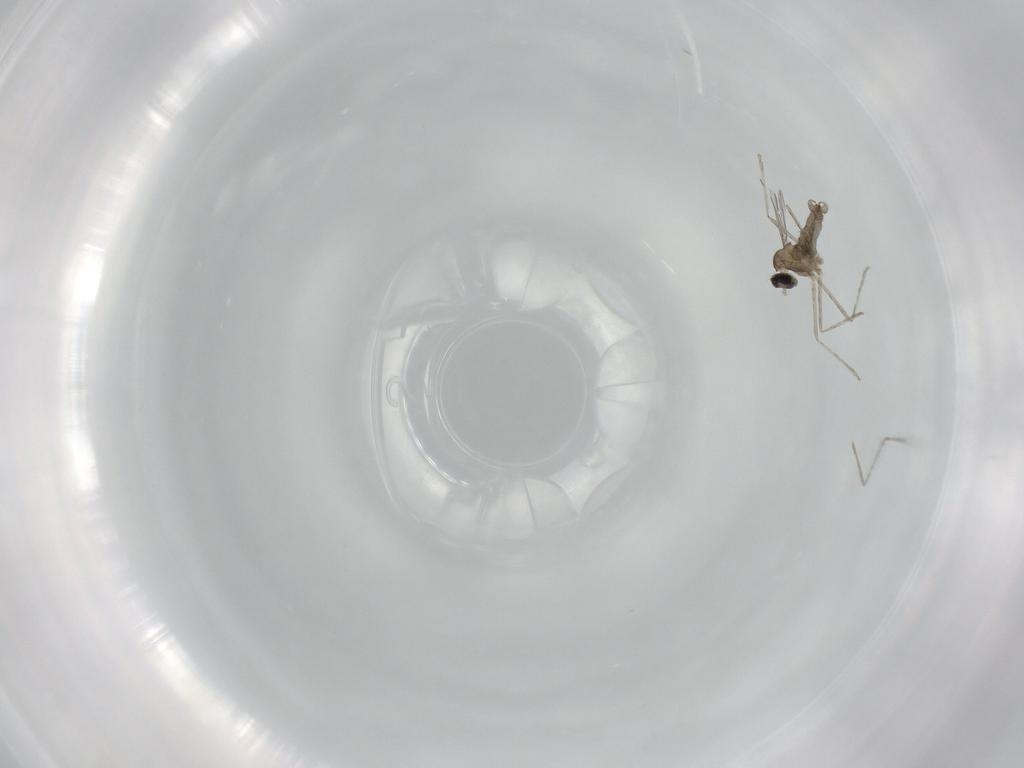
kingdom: Animalia
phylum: Arthropoda
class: Insecta
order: Diptera
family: Cecidomyiidae
